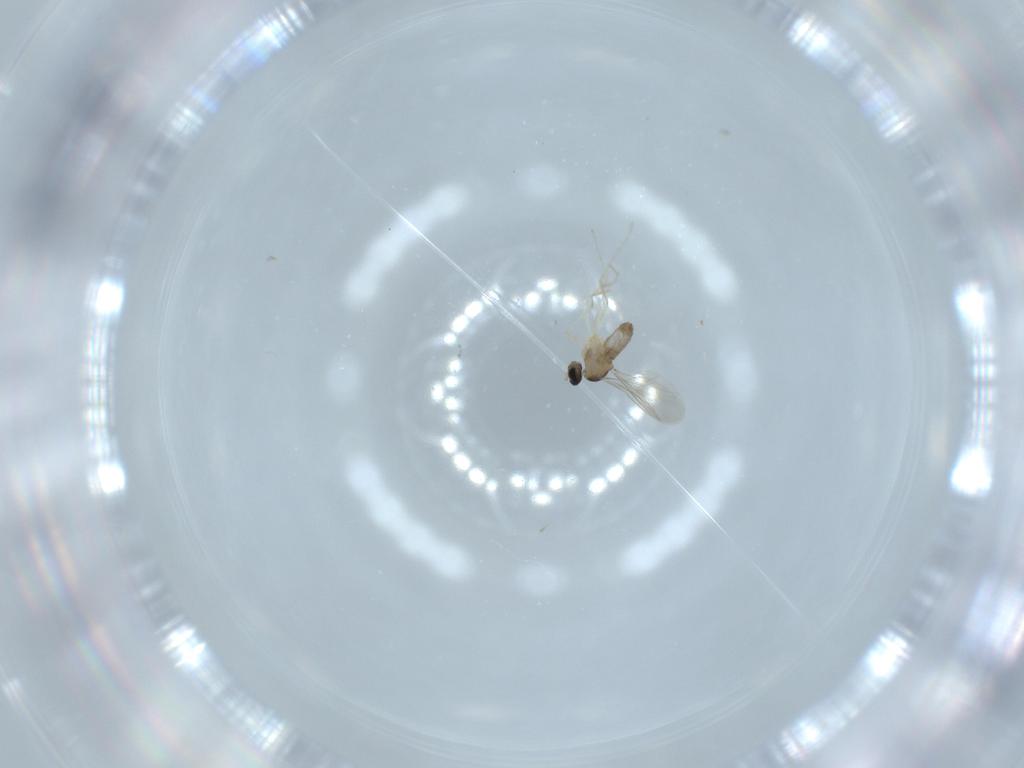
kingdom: Animalia
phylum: Arthropoda
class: Insecta
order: Diptera
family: Cecidomyiidae
